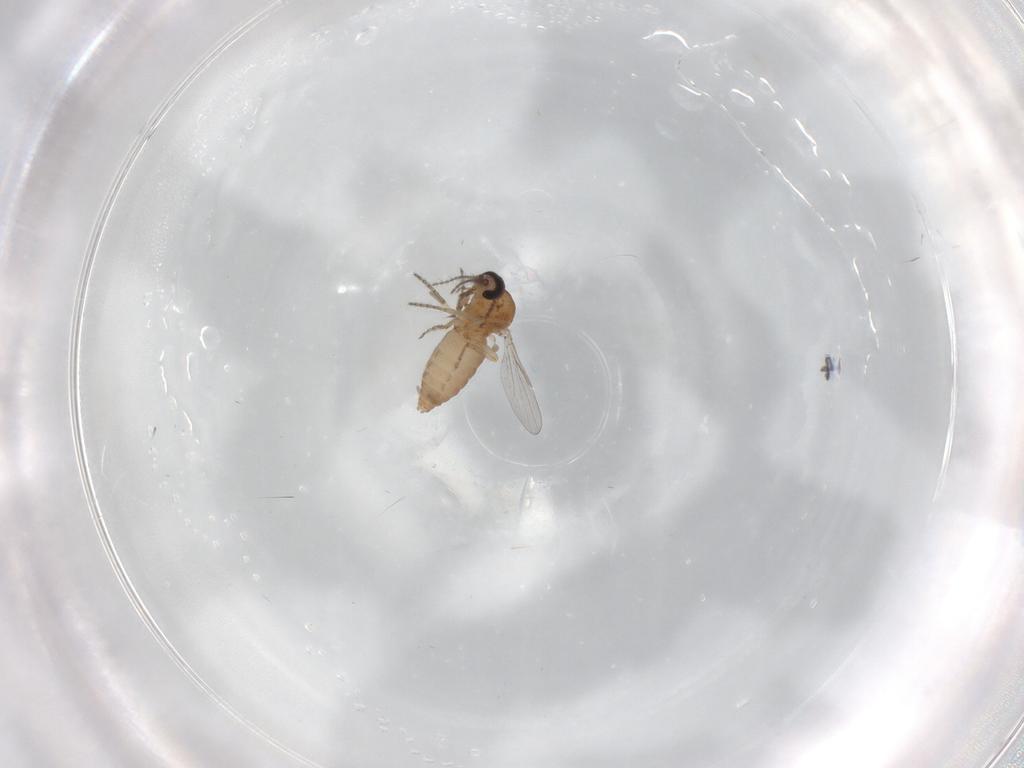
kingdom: Animalia
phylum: Arthropoda
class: Insecta
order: Diptera
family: Ceratopogonidae
